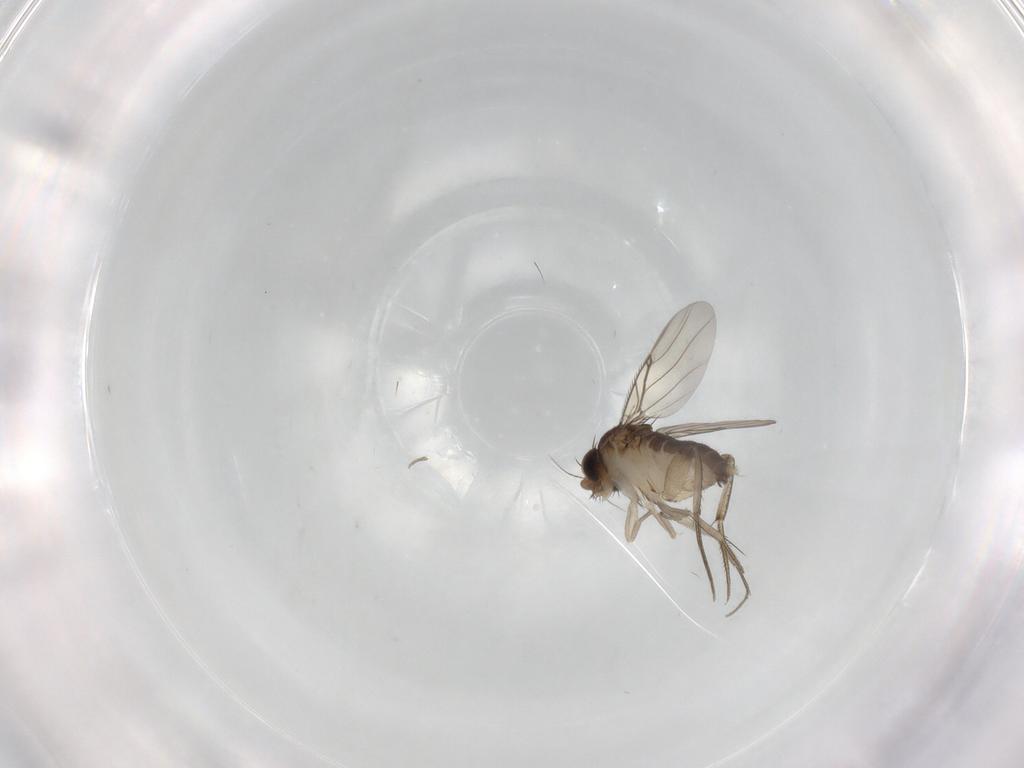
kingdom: Animalia
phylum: Arthropoda
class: Insecta
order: Diptera
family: Phoridae
